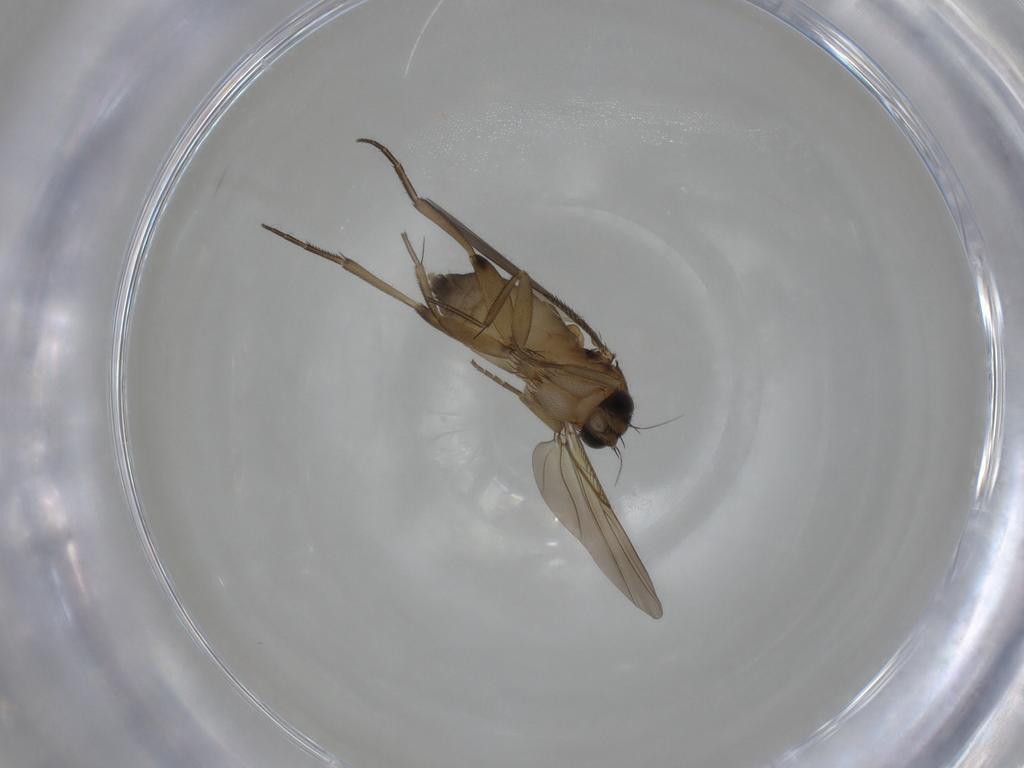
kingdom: Animalia
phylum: Arthropoda
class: Insecta
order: Diptera
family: Phoridae
